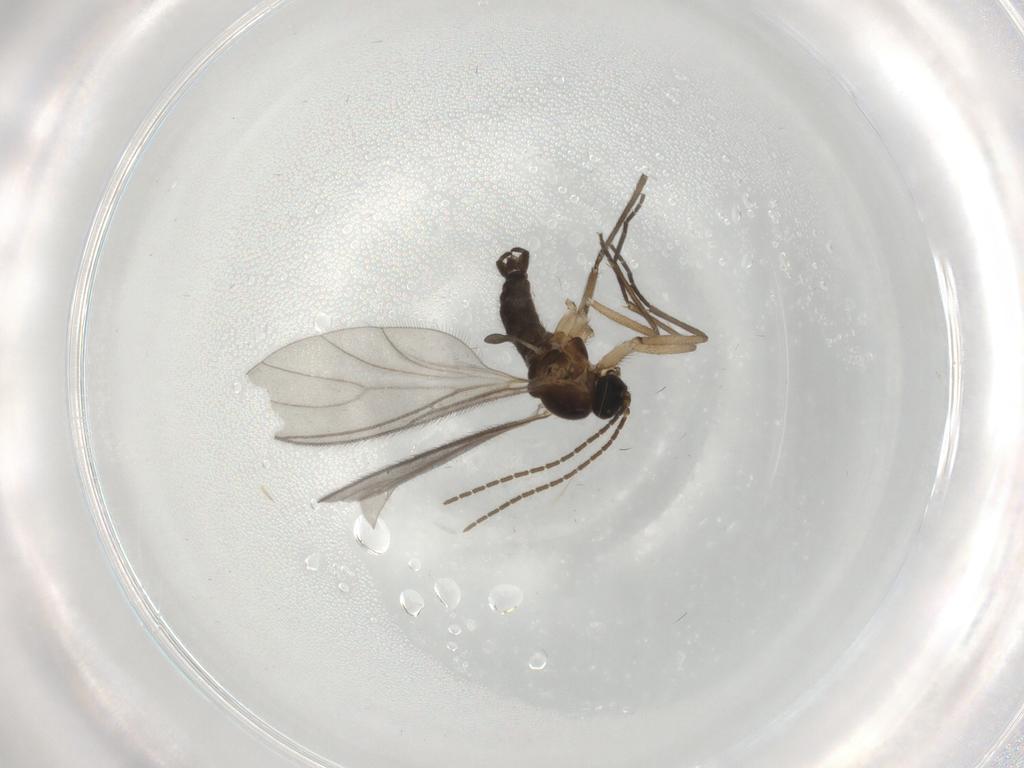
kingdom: Animalia
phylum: Arthropoda
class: Insecta
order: Diptera
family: Sciaridae
